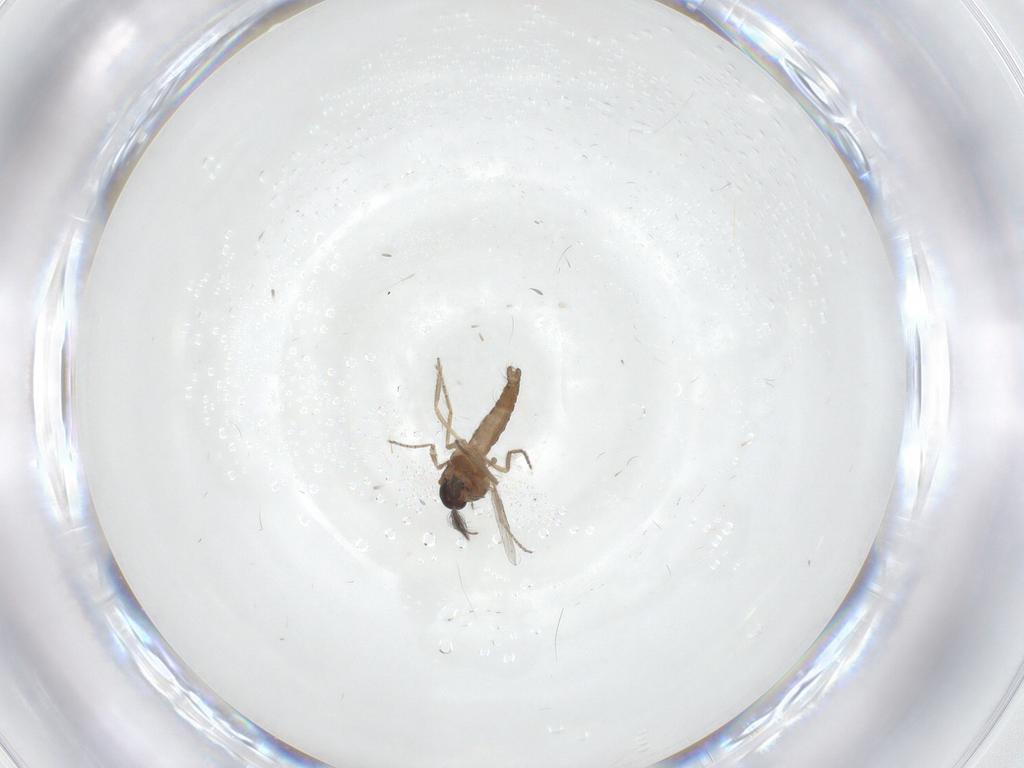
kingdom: Animalia
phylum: Arthropoda
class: Insecta
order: Diptera
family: Ceratopogonidae
